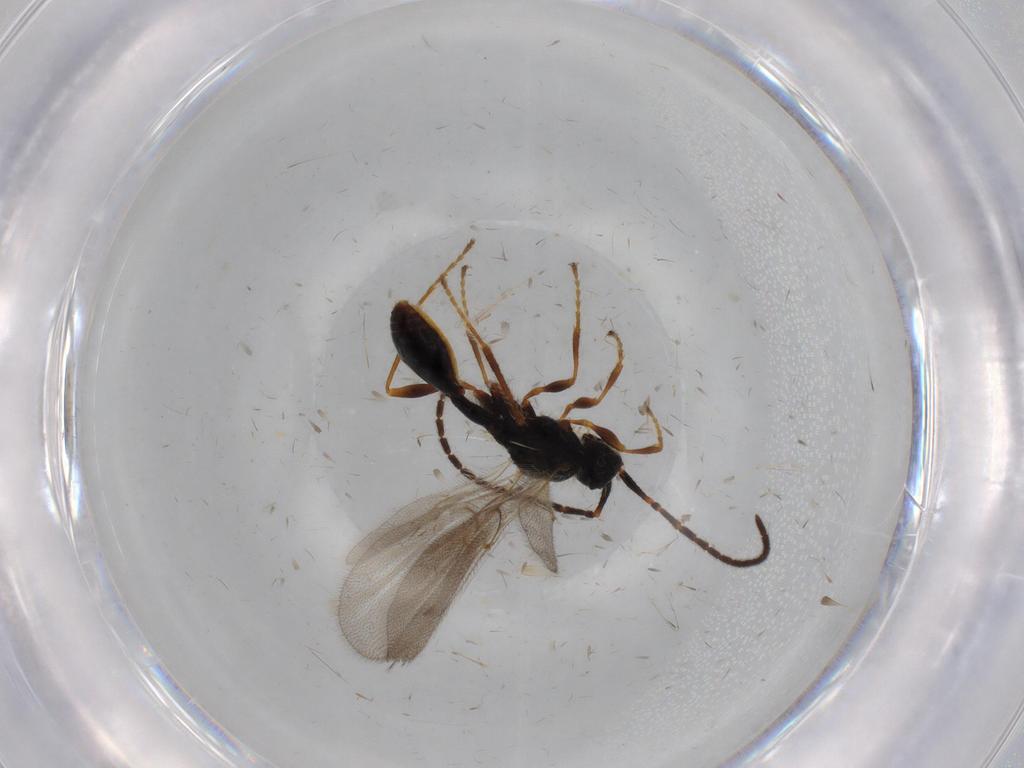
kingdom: Animalia
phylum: Arthropoda
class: Insecta
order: Hymenoptera
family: Diapriidae
